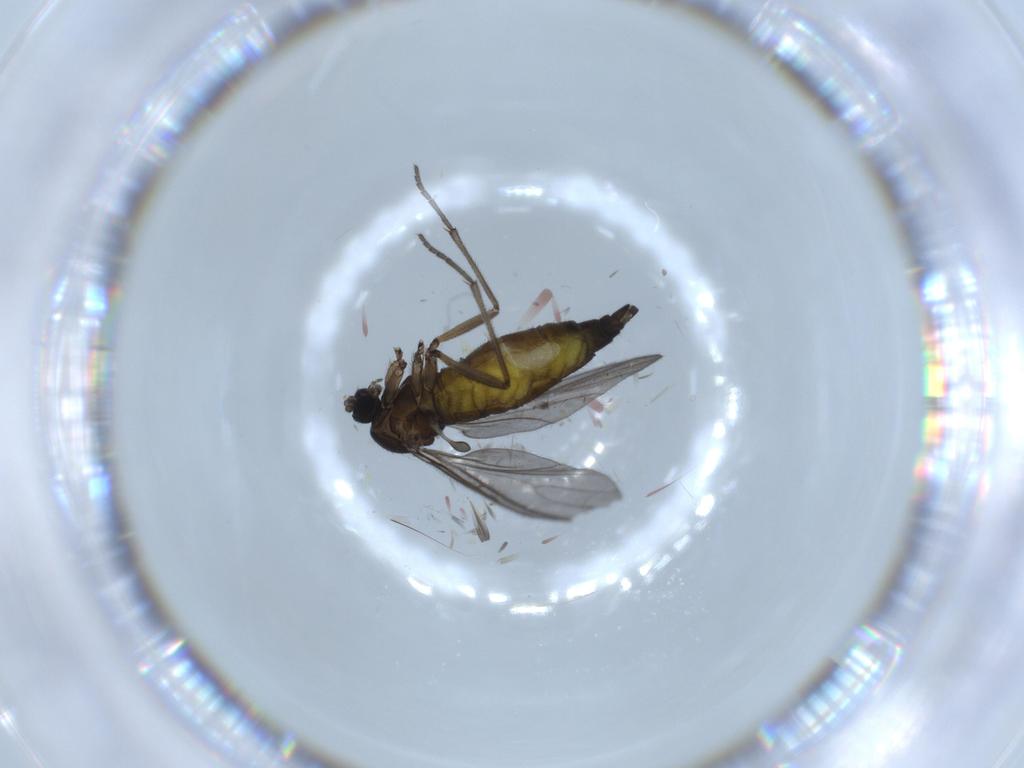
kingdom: Animalia
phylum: Arthropoda
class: Insecta
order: Diptera
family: Sciaridae
